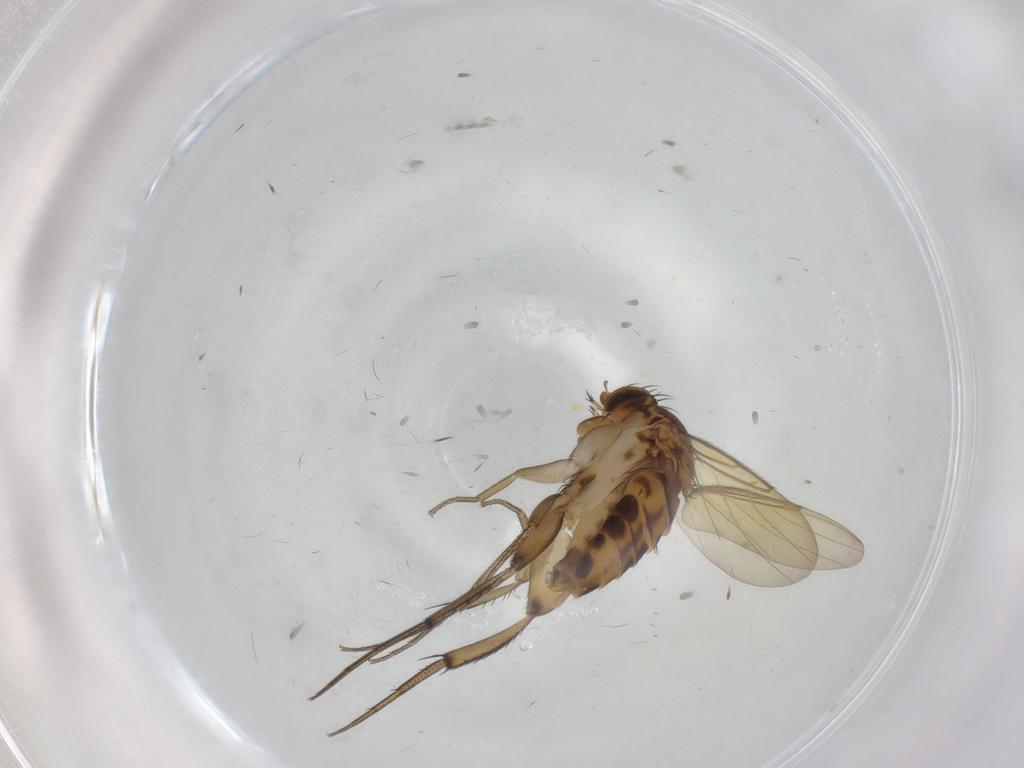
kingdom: Animalia
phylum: Arthropoda
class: Insecta
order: Diptera
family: Phoridae
